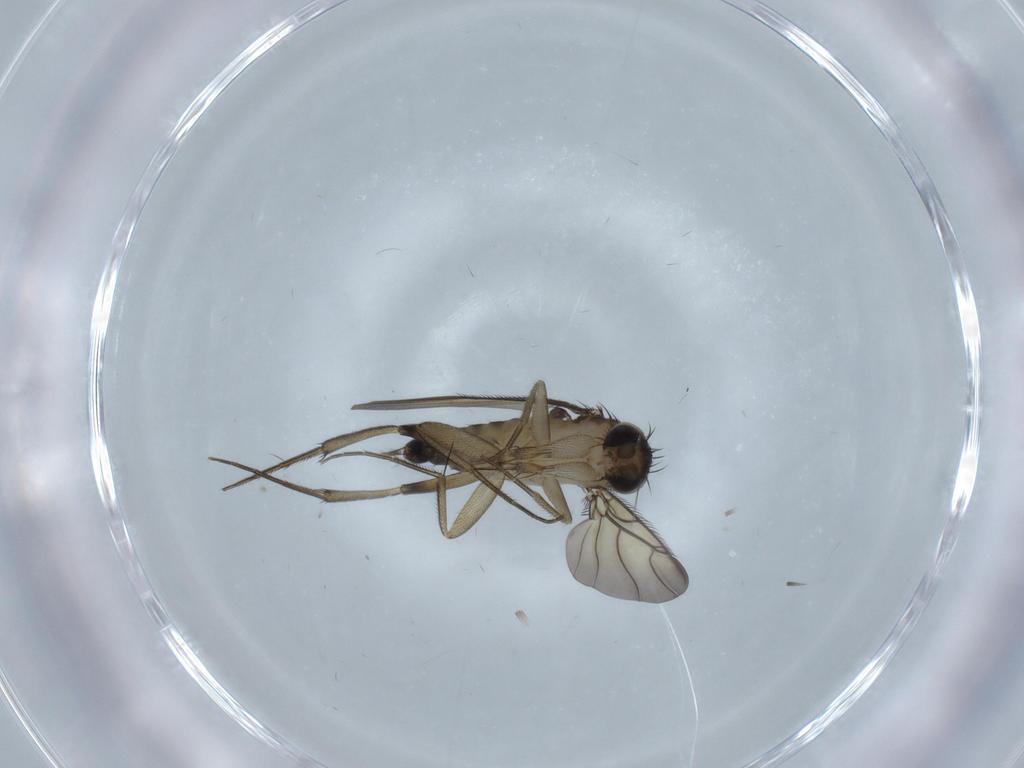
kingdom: Animalia
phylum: Arthropoda
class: Insecta
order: Diptera
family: Phoridae
